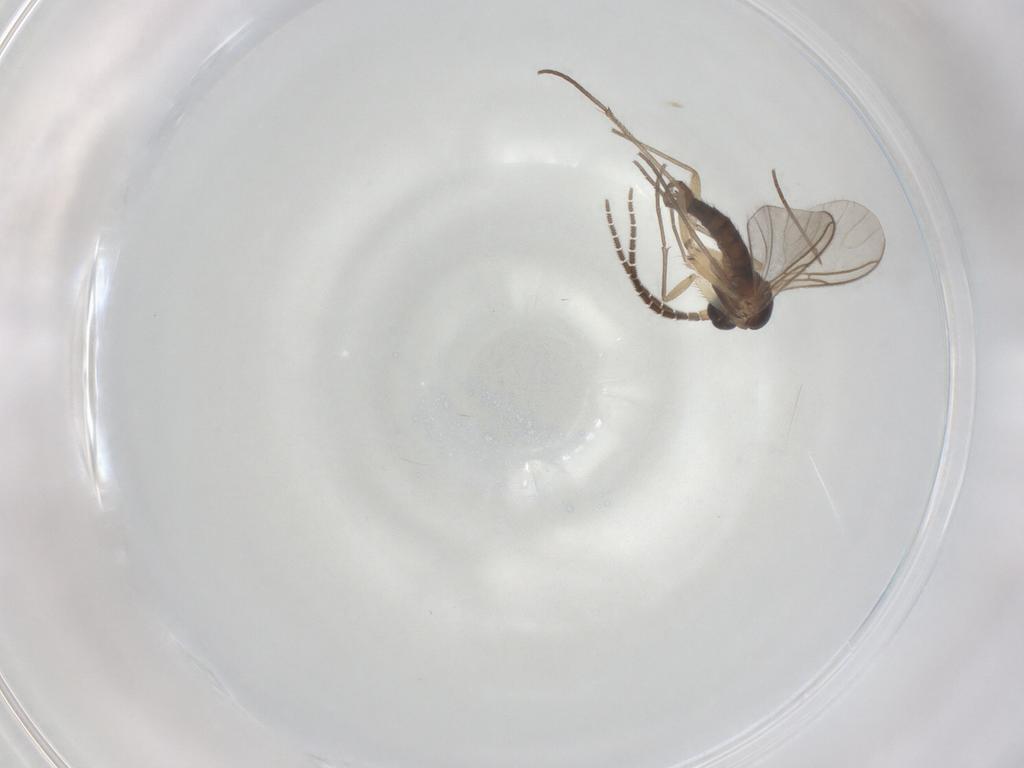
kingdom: Animalia
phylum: Arthropoda
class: Insecta
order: Diptera
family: Sciaridae
